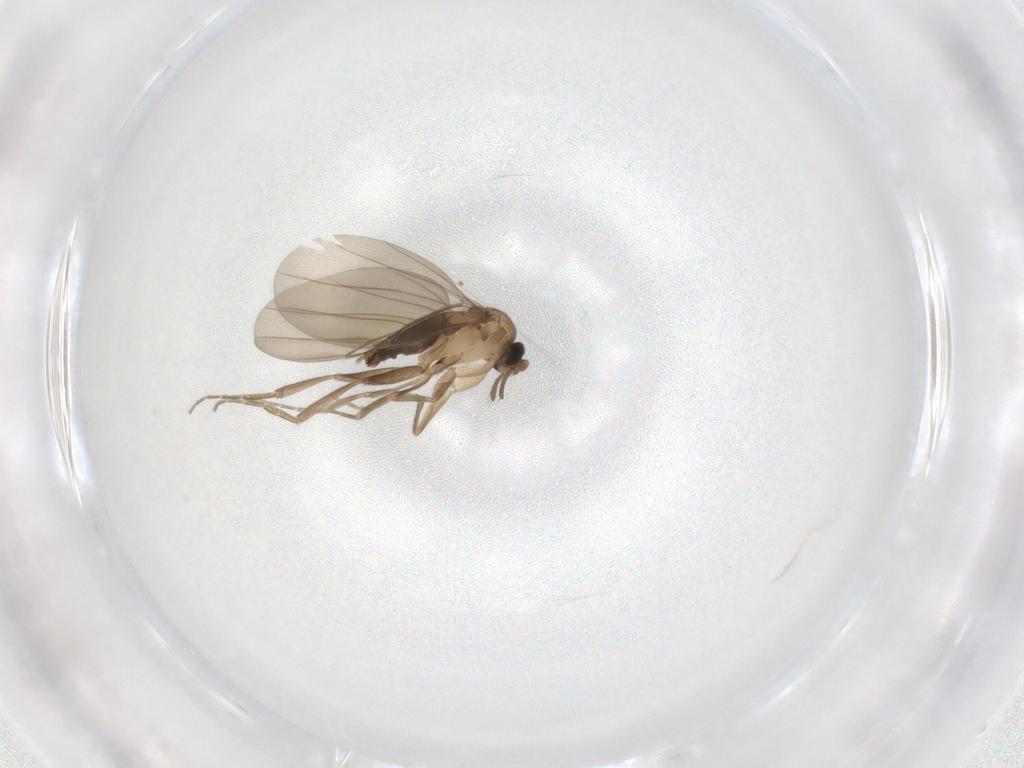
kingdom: Animalia
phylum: Arthropoda
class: Insecta
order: Diptera
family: Phoridae
